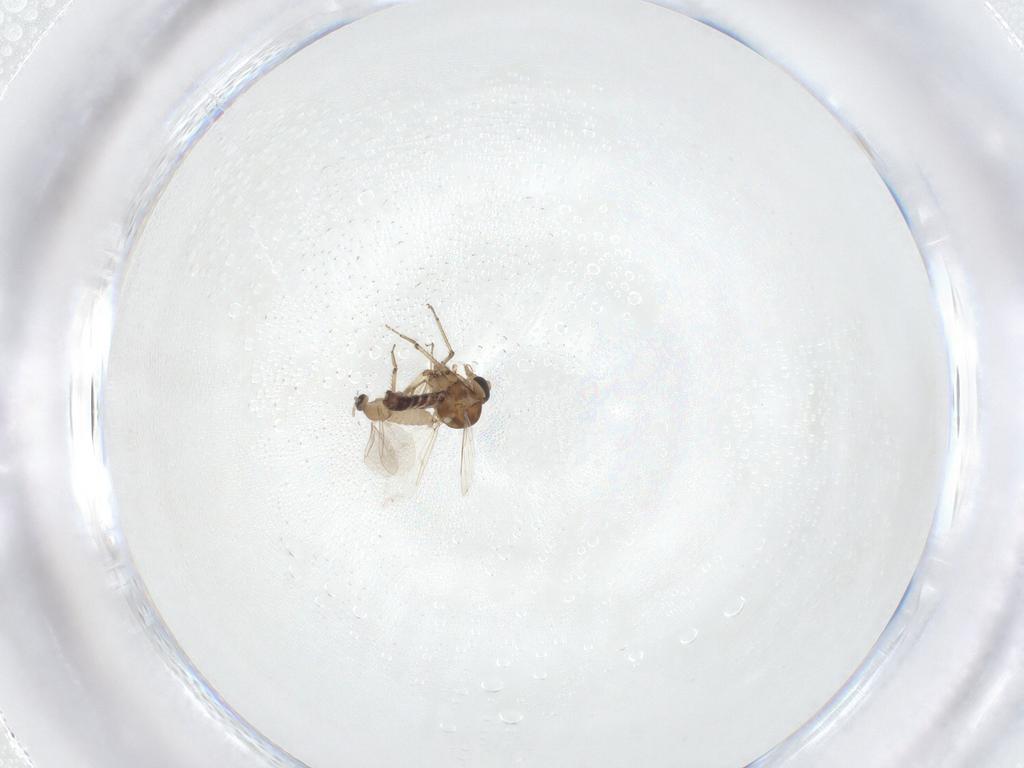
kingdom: Animalia
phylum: Arthropoda
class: Insecta
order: Diptera
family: Ceratopogonidae
